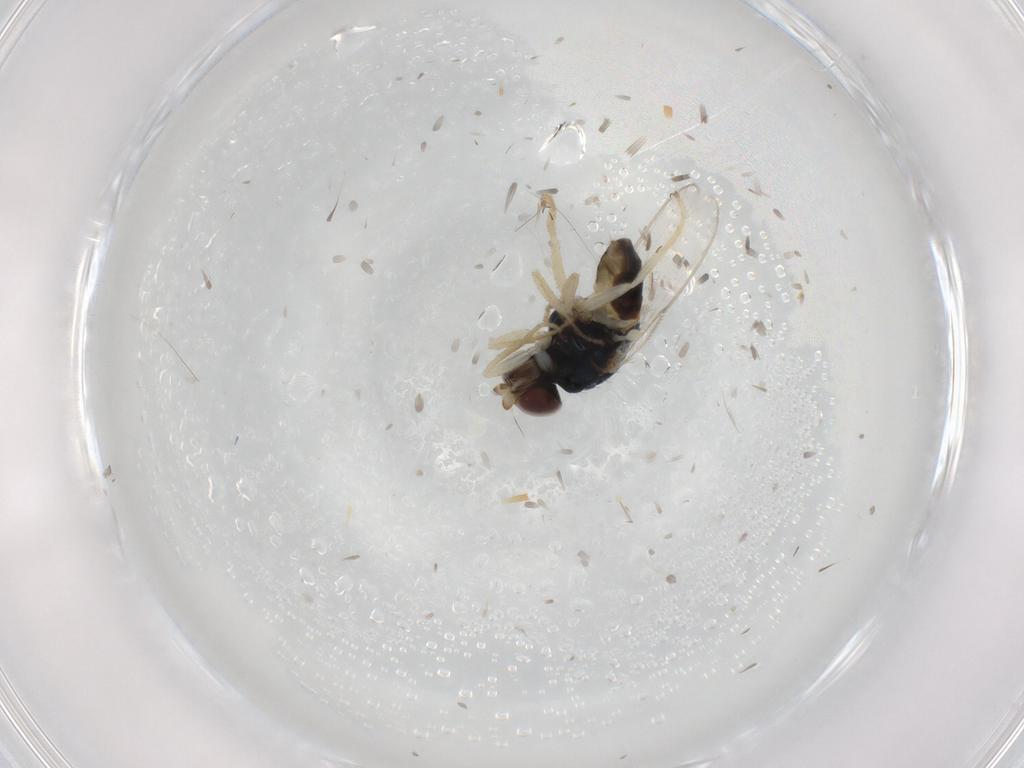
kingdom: Animalia
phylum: Arthropoda
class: Insecta
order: Diptera
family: Chloropidae
